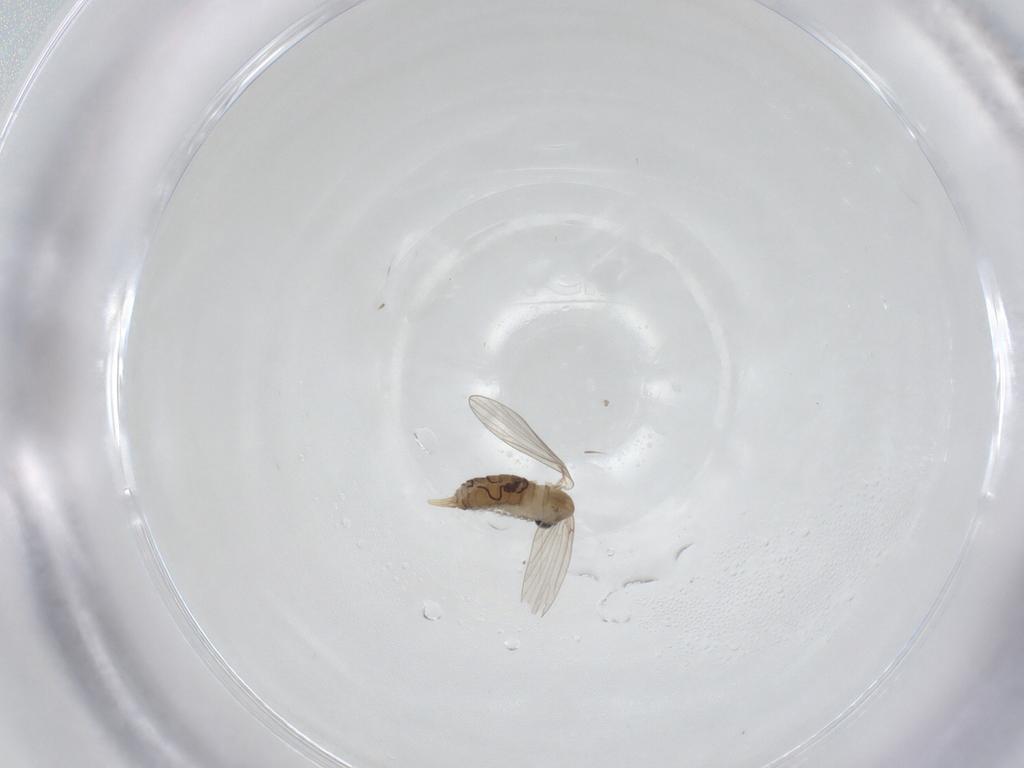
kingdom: Animalia
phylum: Arthropoda
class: Insecta
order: Diptera
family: Psychodidae
